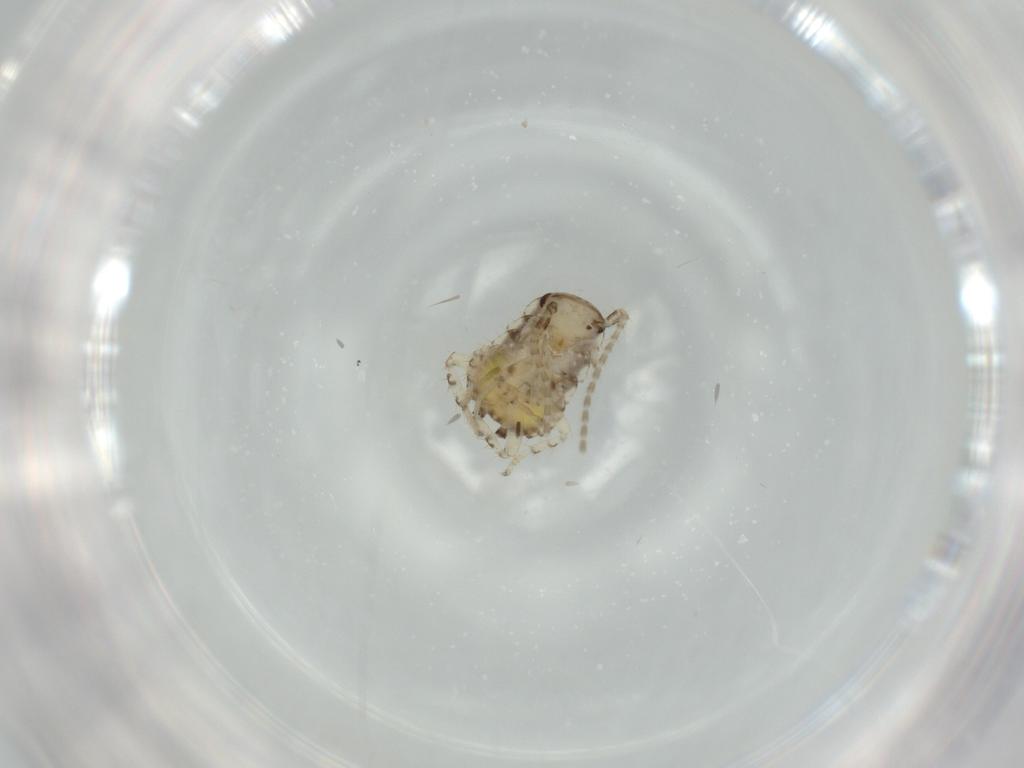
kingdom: Animalia
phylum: Arthropoda
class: Insecta
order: Blattodea
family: Ectobiidae
